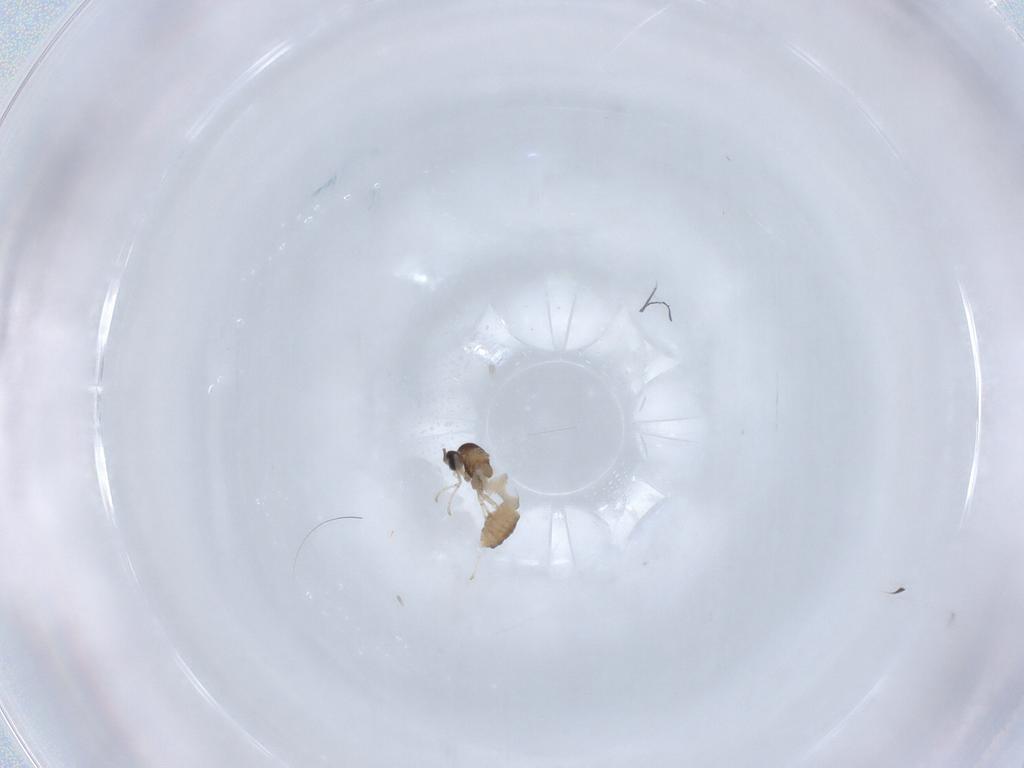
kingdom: Animalia
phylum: Arthropoda
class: Insecta
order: Diptera
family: Cecidomyiidae
